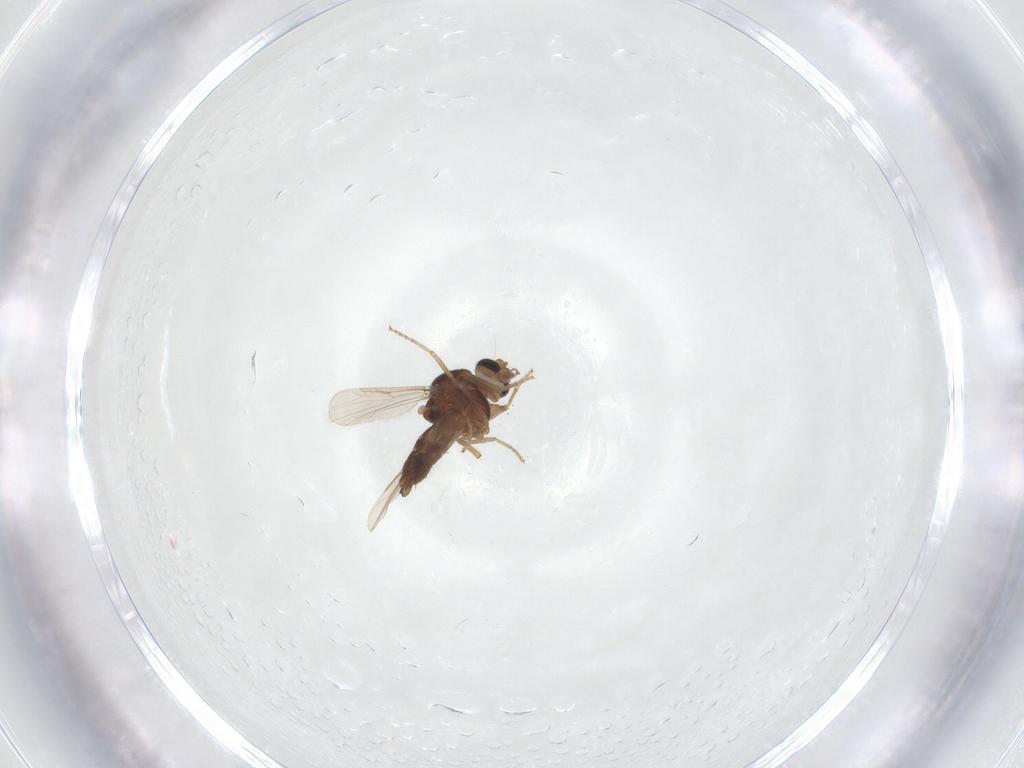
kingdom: Animalia
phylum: Arthropoda
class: Insecta
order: Diptera
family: Ceratopogonidae
